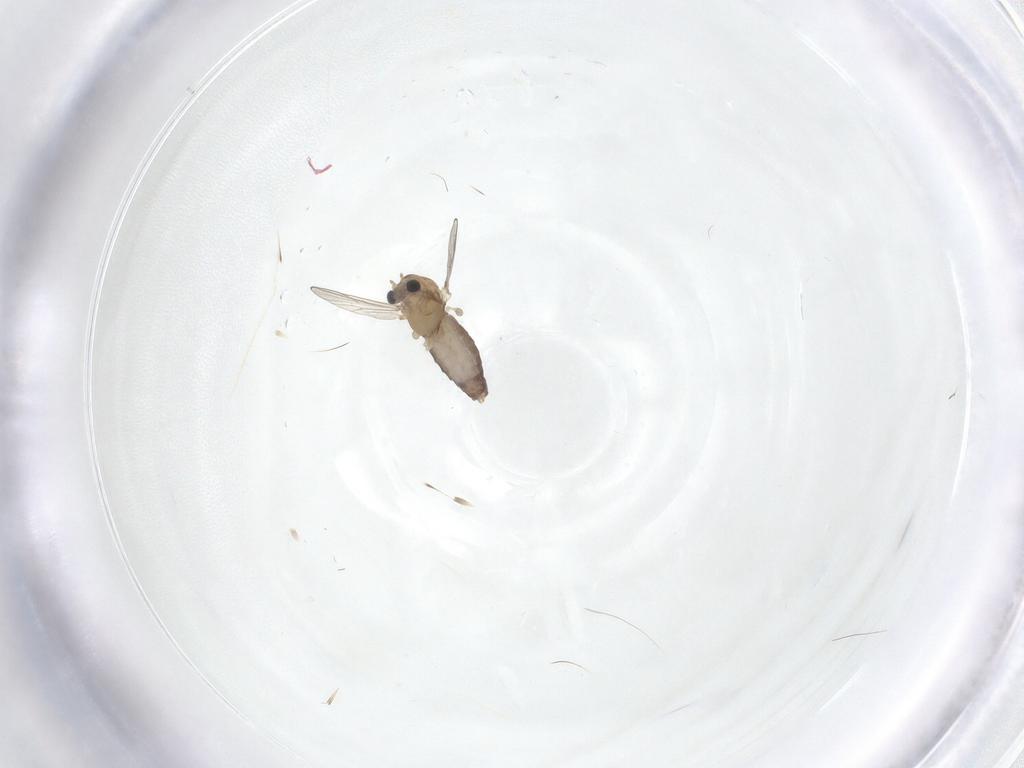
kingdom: Animalia
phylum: Arthropoda
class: Insecta
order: Diptera
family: Chironomidae
